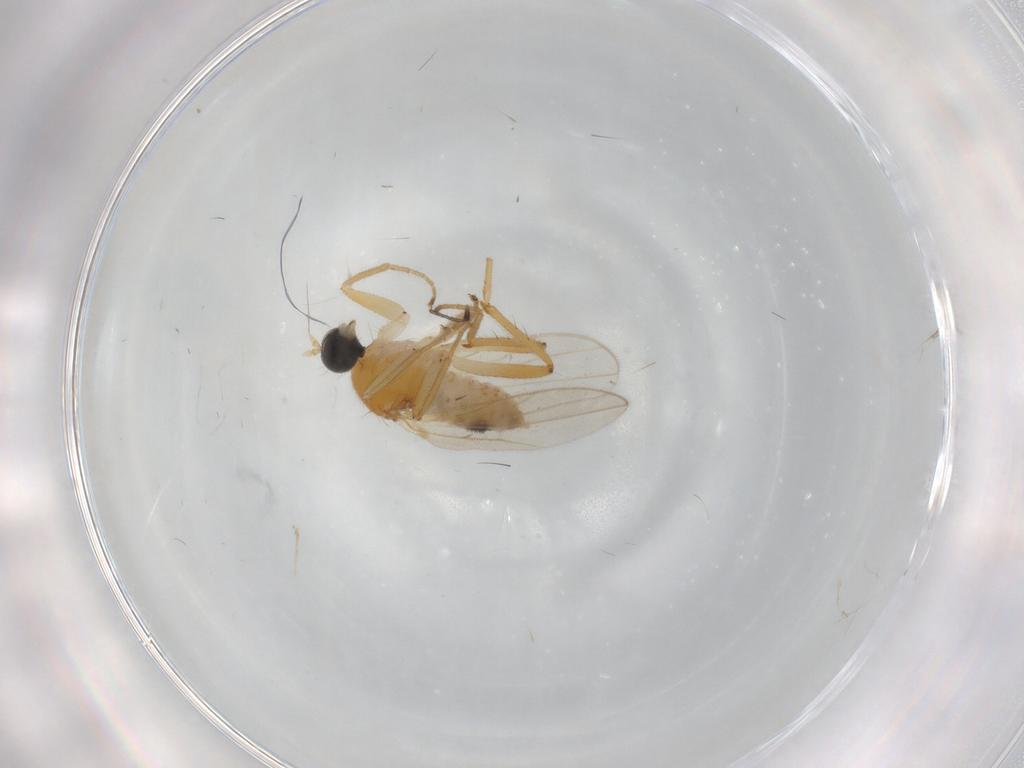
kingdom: Animalia
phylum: Arthropoda
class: Insecta
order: Diptera
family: Hybotidae
